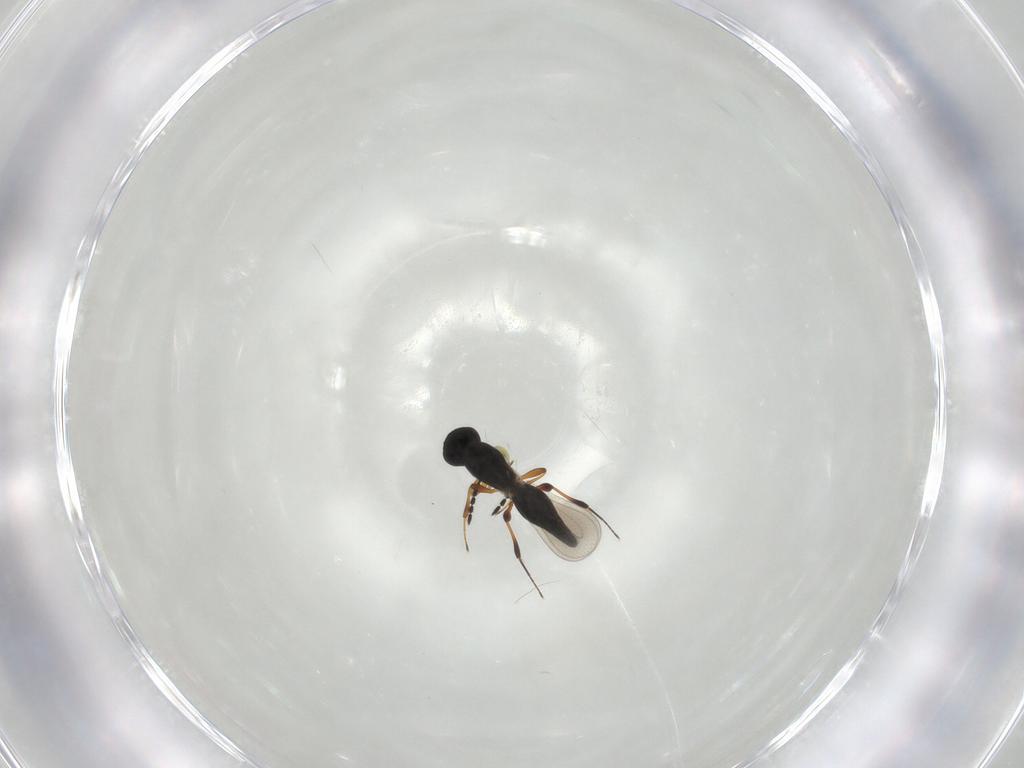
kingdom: Animalia
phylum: Arthropoda
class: Insecta
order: Hymenoptera
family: Platygastridae
